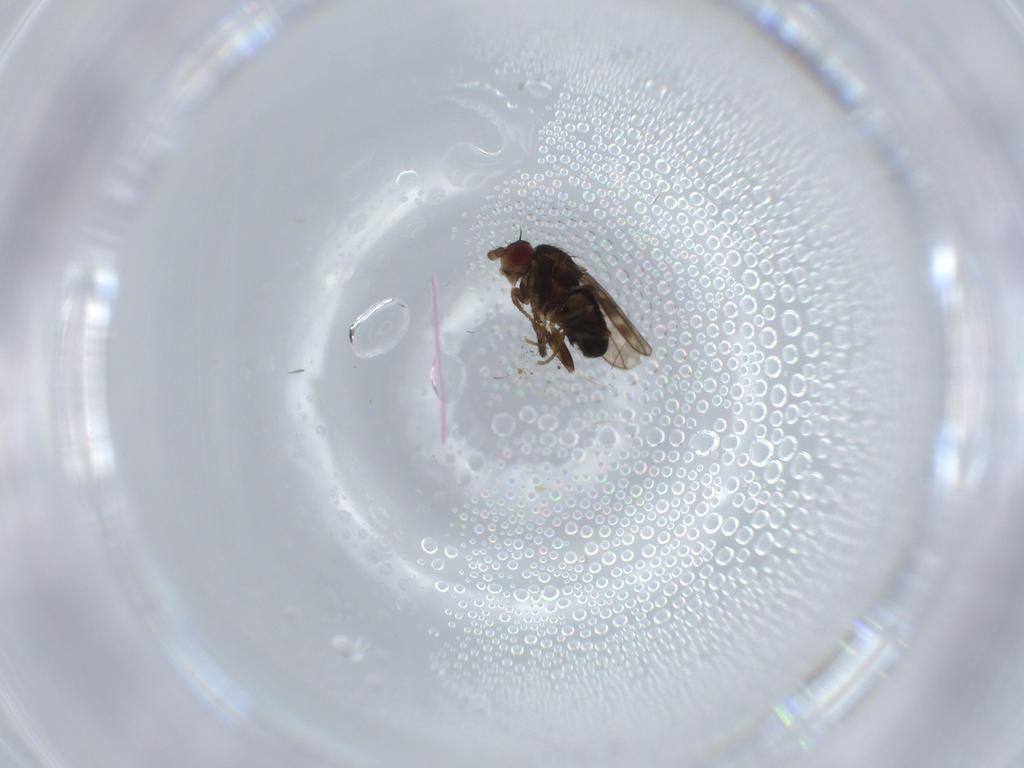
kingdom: Animalia
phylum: Arthropoda
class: Insecta
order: Diptera
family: Sphaeroceridae
